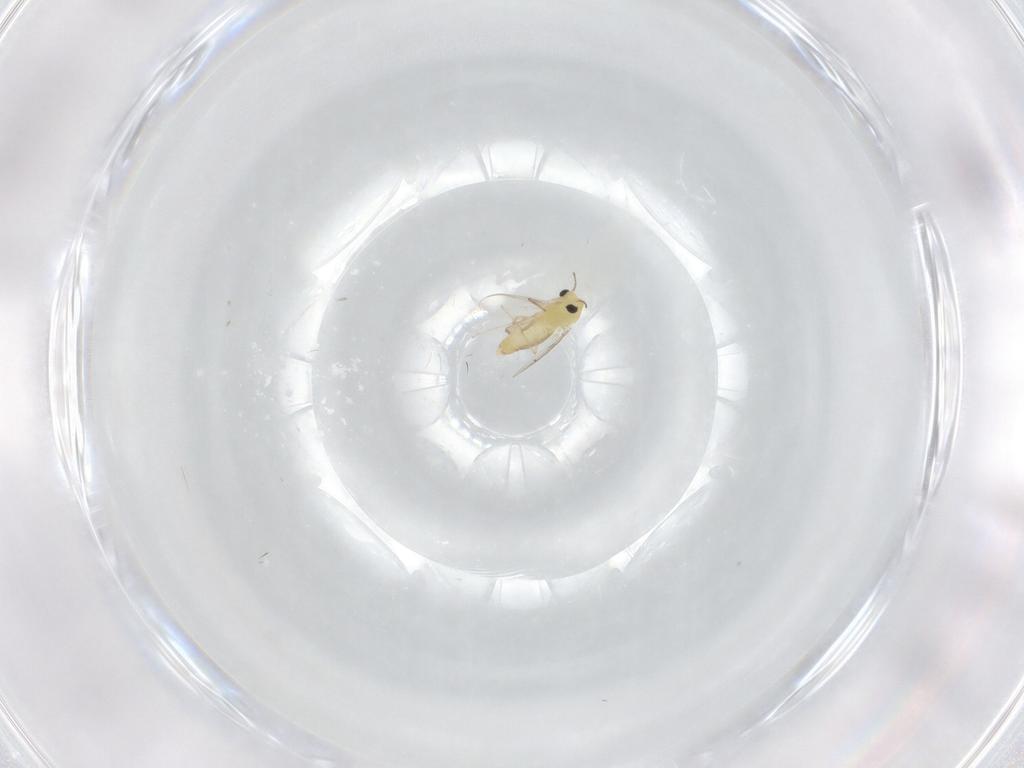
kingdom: Animalia
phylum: Arthropoda
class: Insecta
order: Diptera
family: Chironomidae
